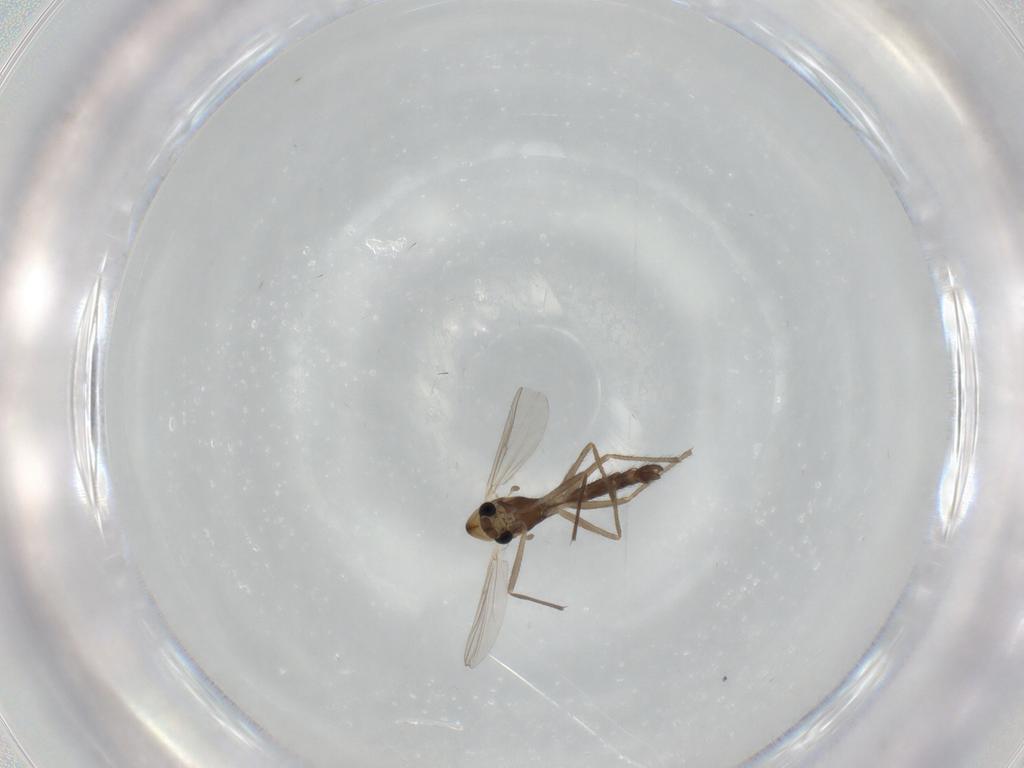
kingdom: Animalia
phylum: Arthropoda
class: Insecta
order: Diptera
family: Chironomidae
